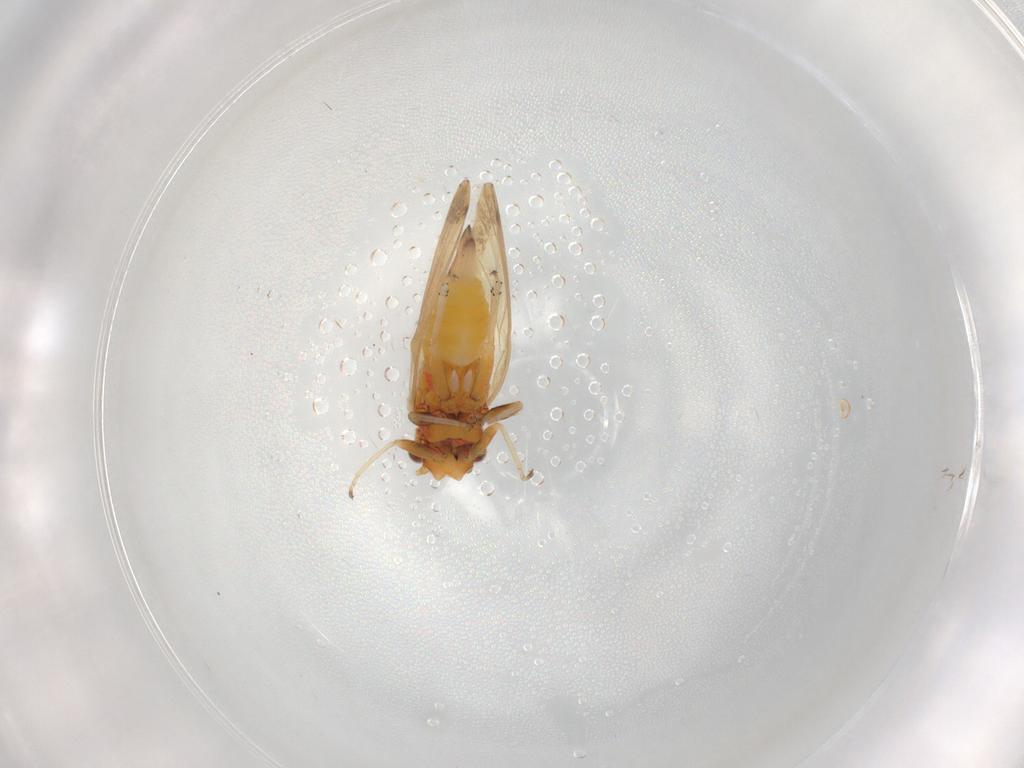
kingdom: Animalia
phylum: Arthropoda
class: Insecta
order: Hemiptera
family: Psyllidae
